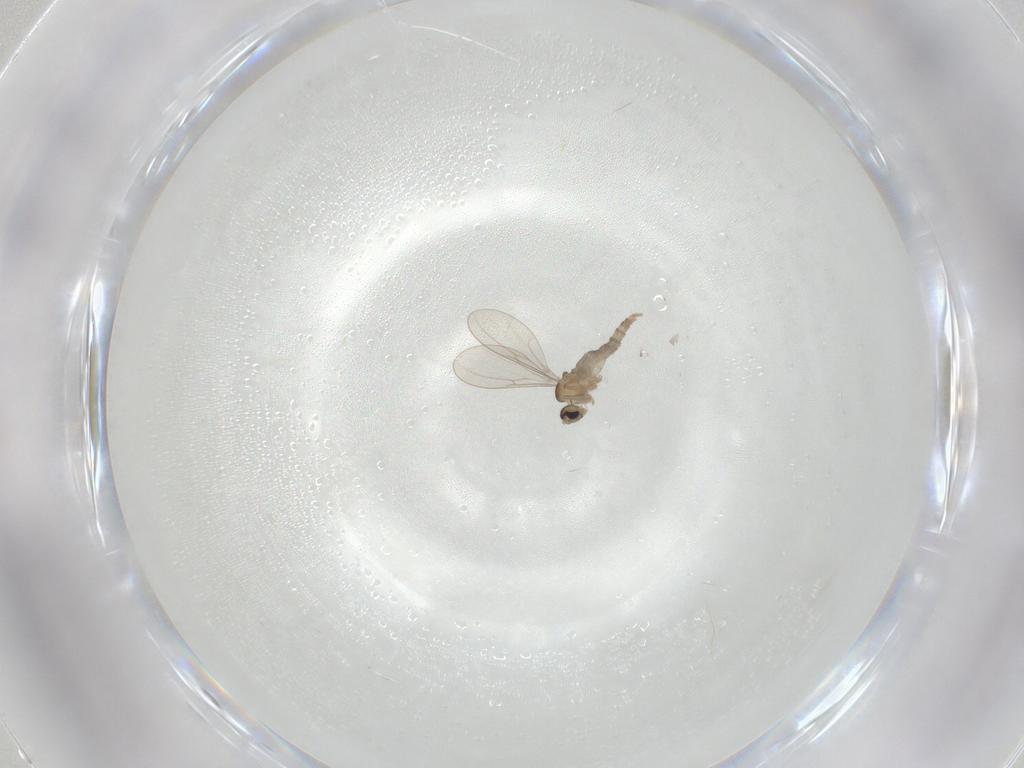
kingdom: Animalia
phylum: Arthropoda
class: Insecta
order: Diptera
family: Cecidomyiidae
